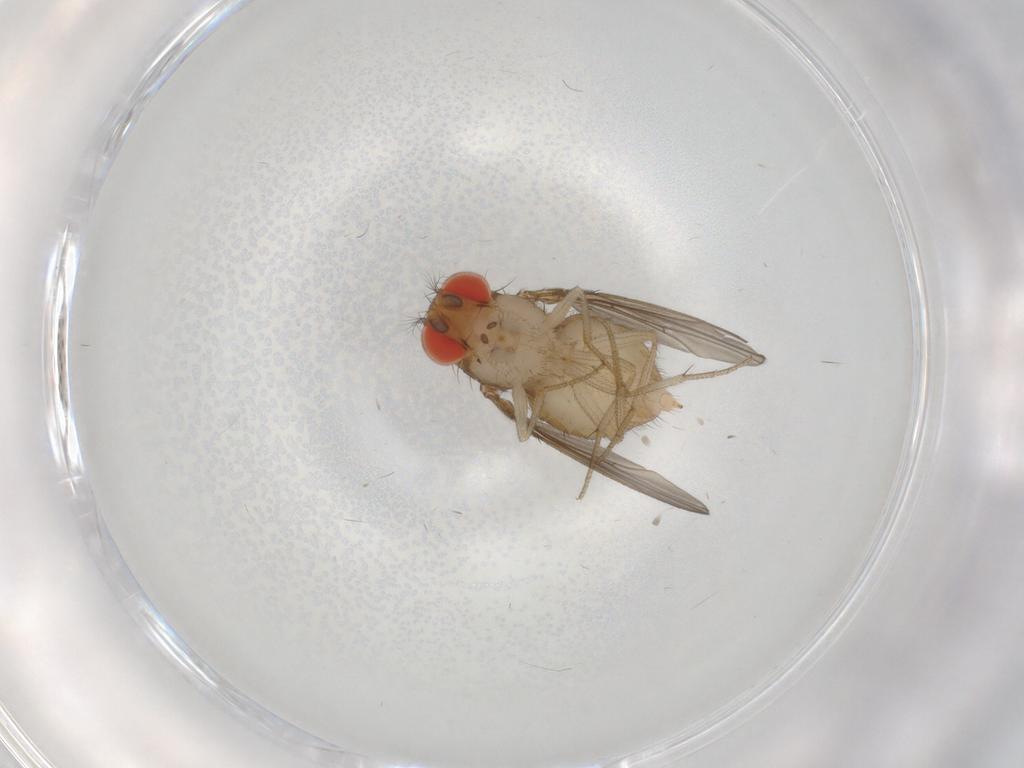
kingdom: Animalia
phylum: Arthropoda
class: Insecta
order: Diptera
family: Drosophilidae
